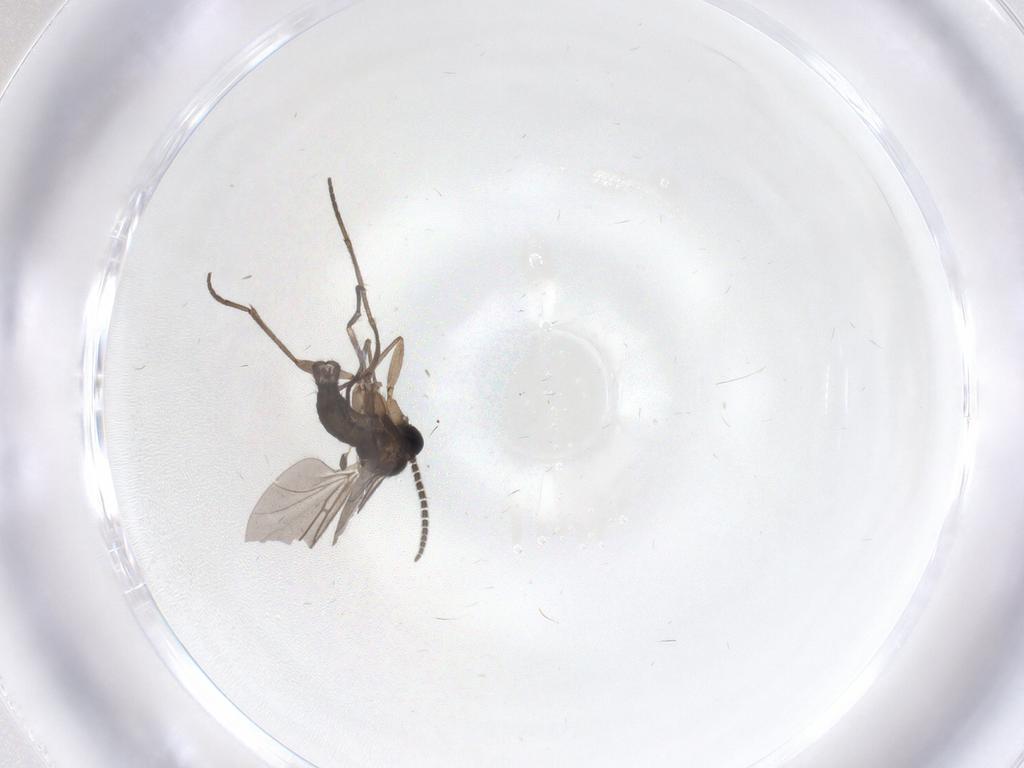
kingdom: Animalia
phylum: Arthropoda
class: Insecta
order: Diptera
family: Sciaridae
